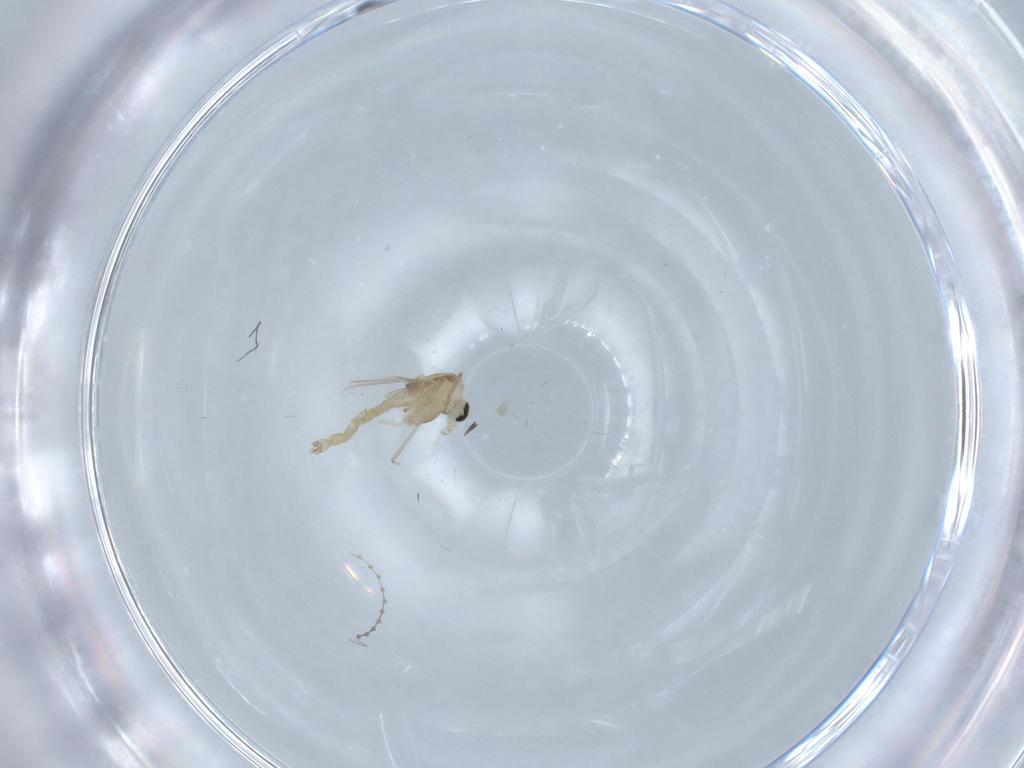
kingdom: Animalia
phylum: Arthropoda
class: Insecta
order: Diptera
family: Chironomidae
